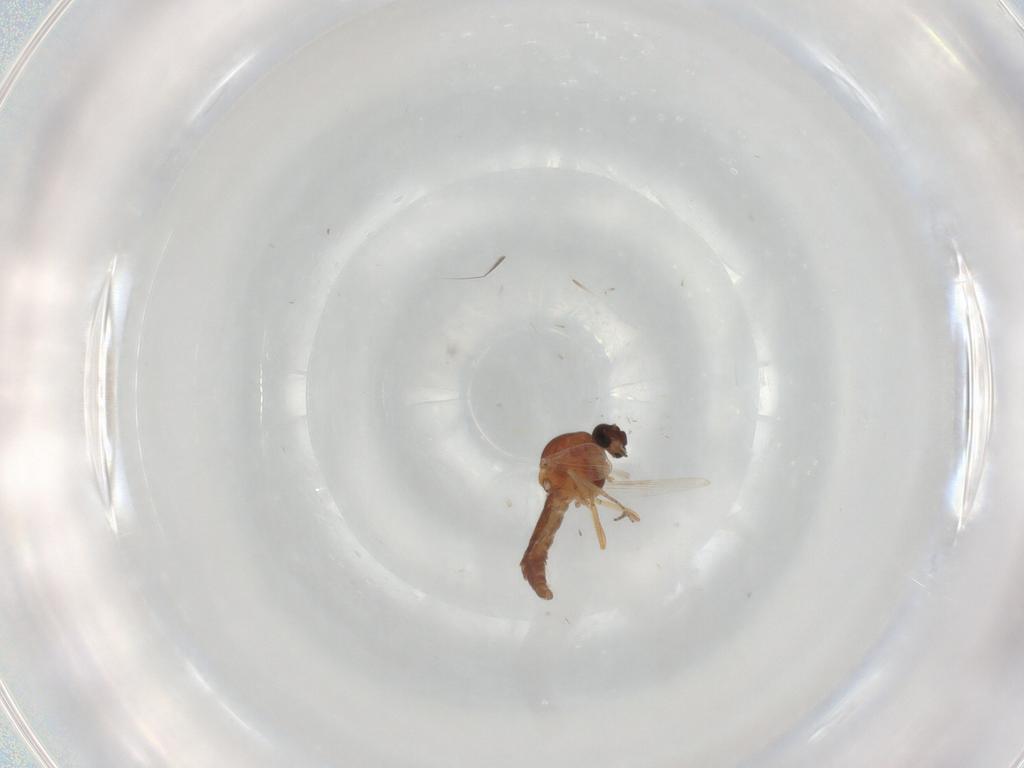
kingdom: Animalia
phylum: Arthropoda
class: Insecta
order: Diptera
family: Ceratopogonidae
